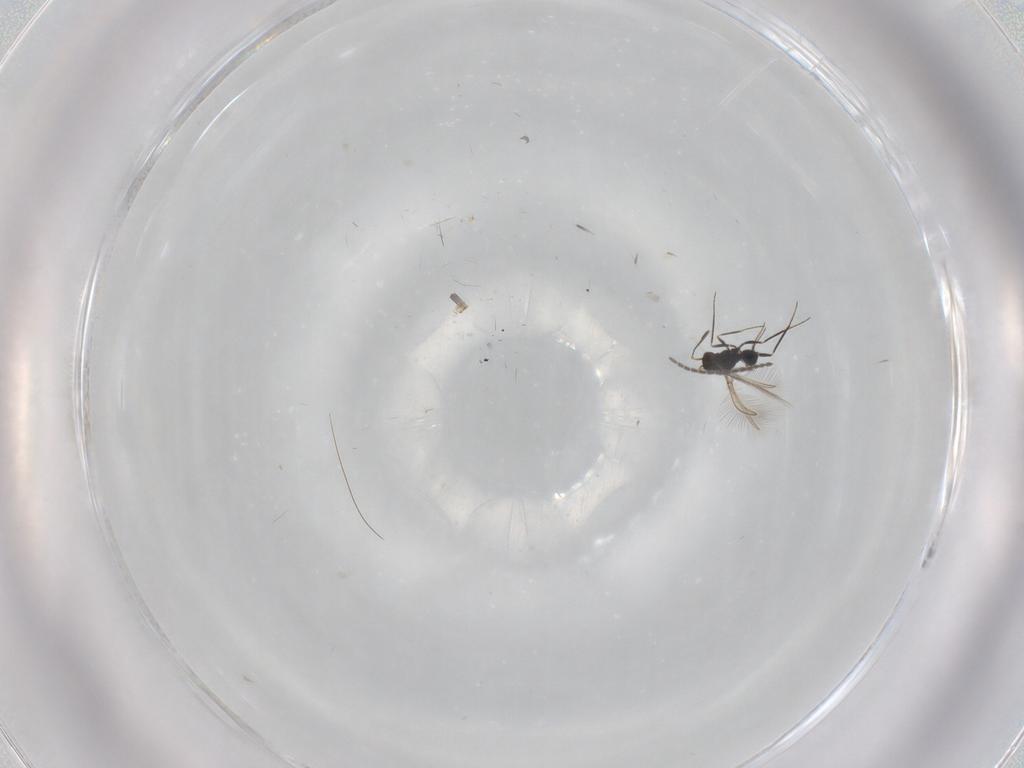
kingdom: Animalia
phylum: Arthropoda
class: Insecta
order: Hymenoptera
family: Mymaridae
